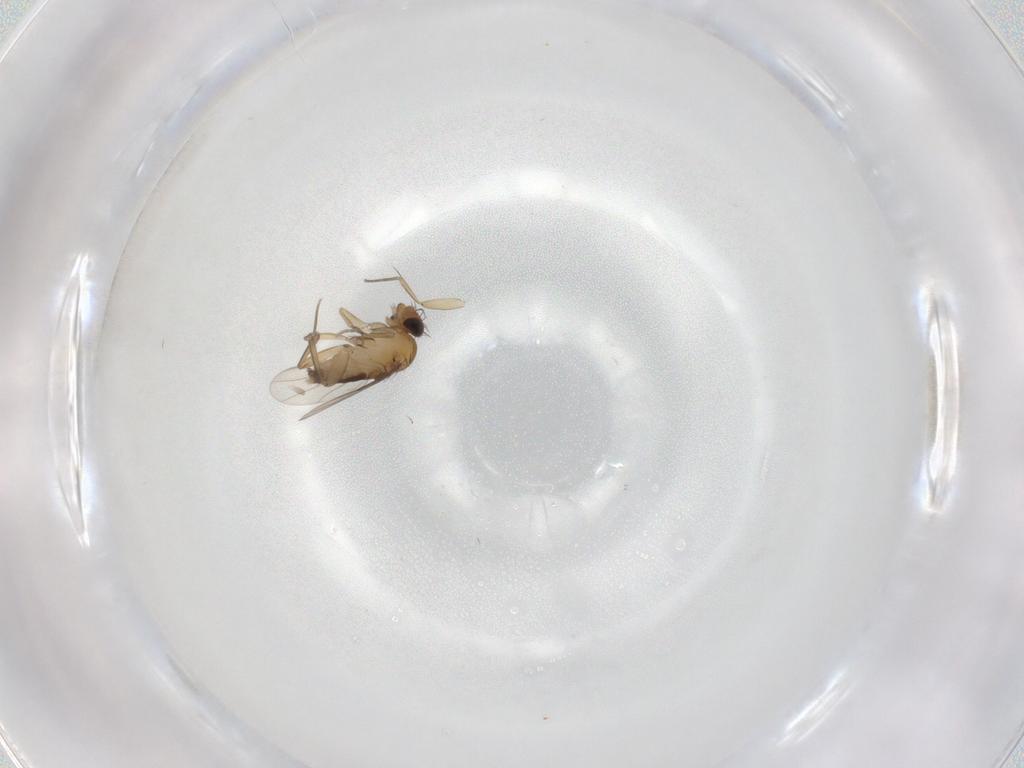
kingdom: Animalia
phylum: Arthropoda
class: Insecta
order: Diptera
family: Phoridae
